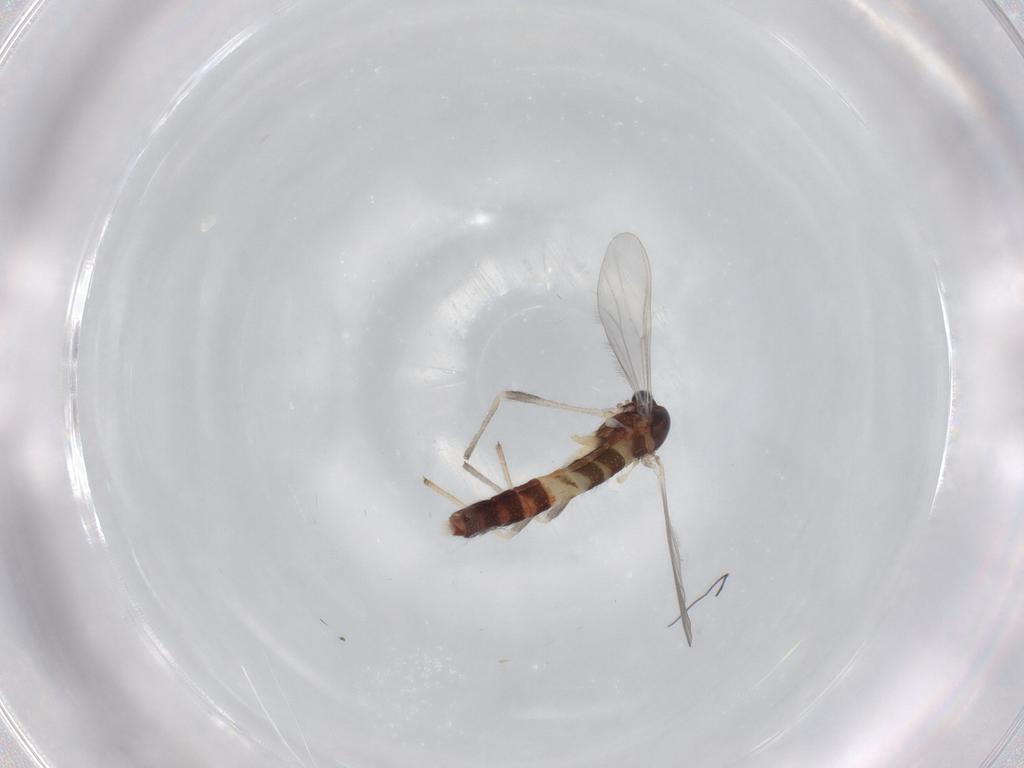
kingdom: Animalia
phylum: Arthropoda
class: Insecta
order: Diptera
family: Chironomidae
